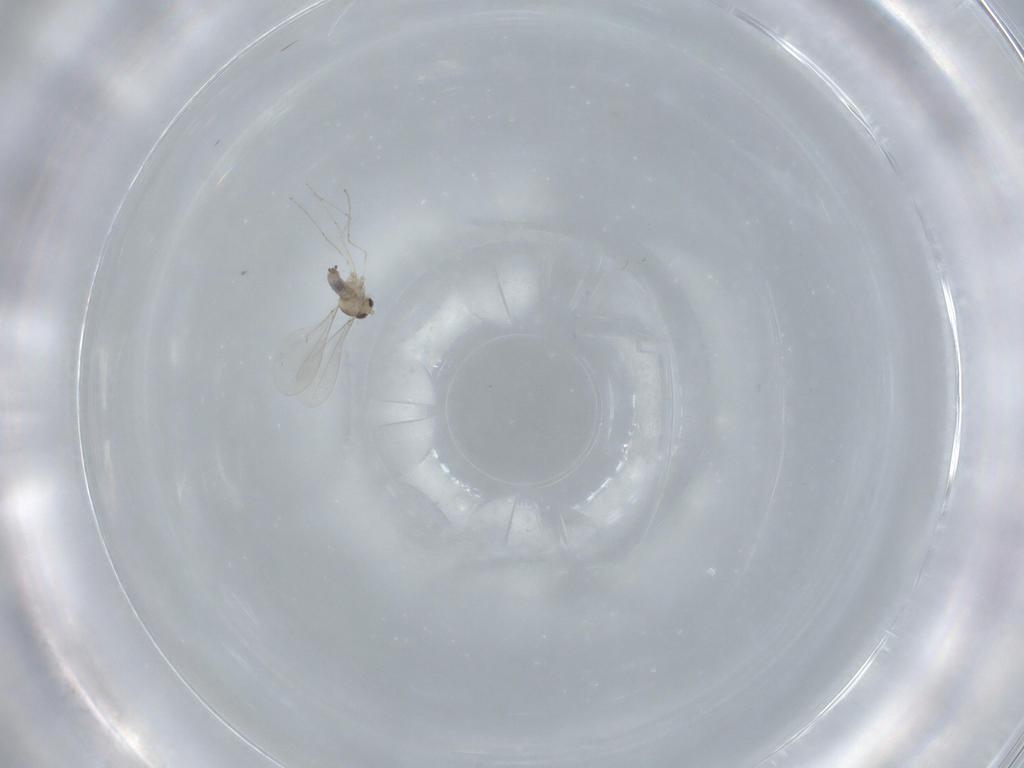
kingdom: Animalia
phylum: Arthropoda
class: Insecta
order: Diptera
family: Cecidomyiidae
